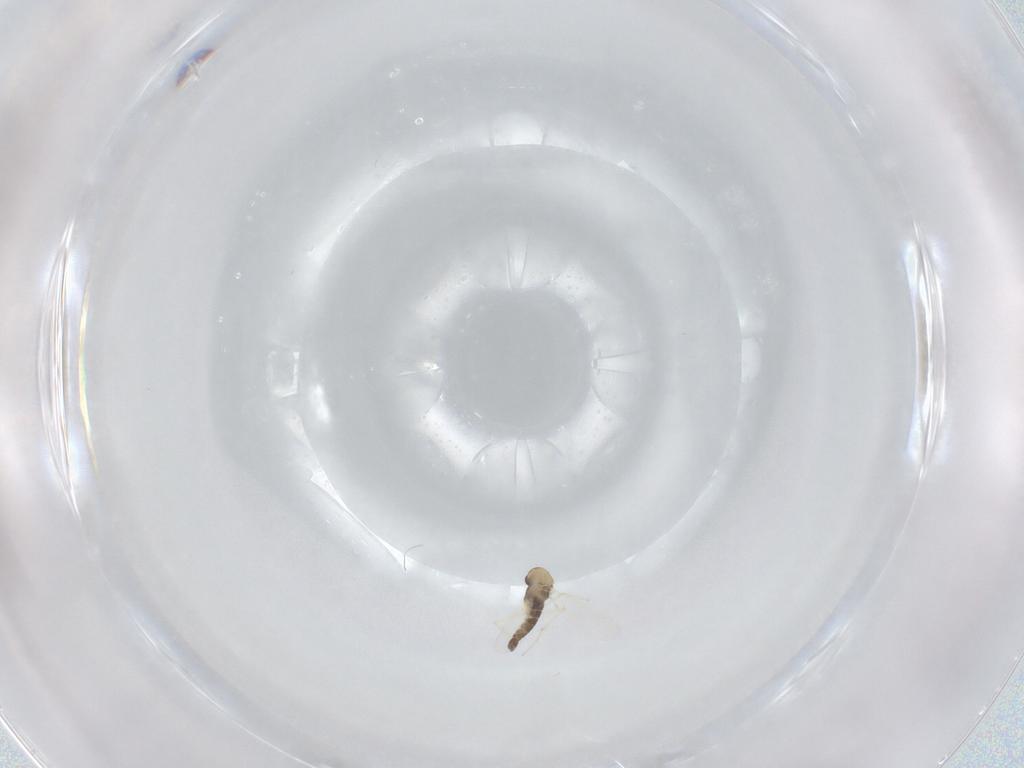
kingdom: Animalia
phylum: Arthropoda
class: Insecta
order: Diptera
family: Chironomidae
